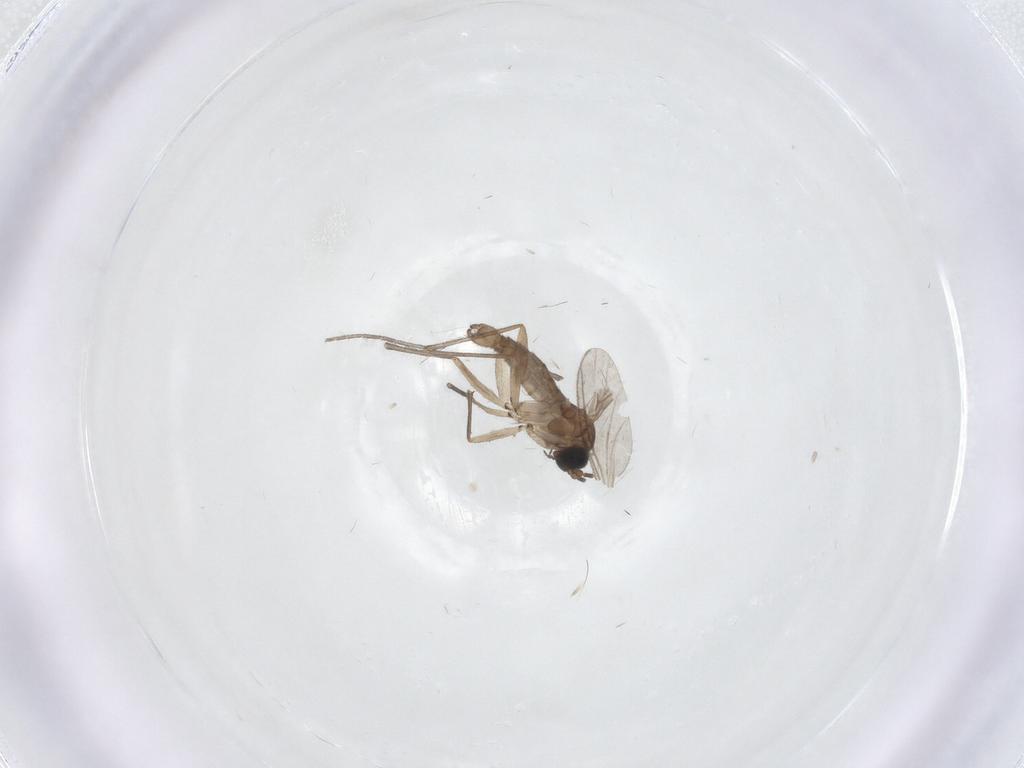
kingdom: Animalia
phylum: Arthropoda
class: Insecta
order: Diptera
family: Sciaridae
